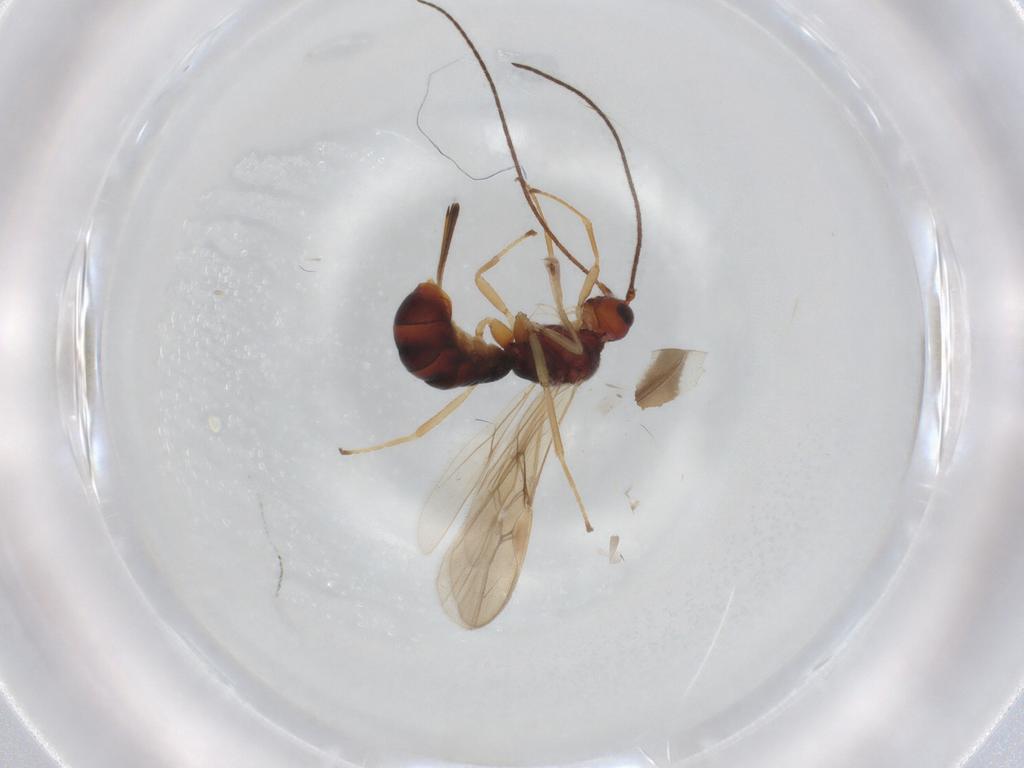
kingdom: Animalia
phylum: Arthropoda
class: Insecta
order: Hymenoptera
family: Braconidae
